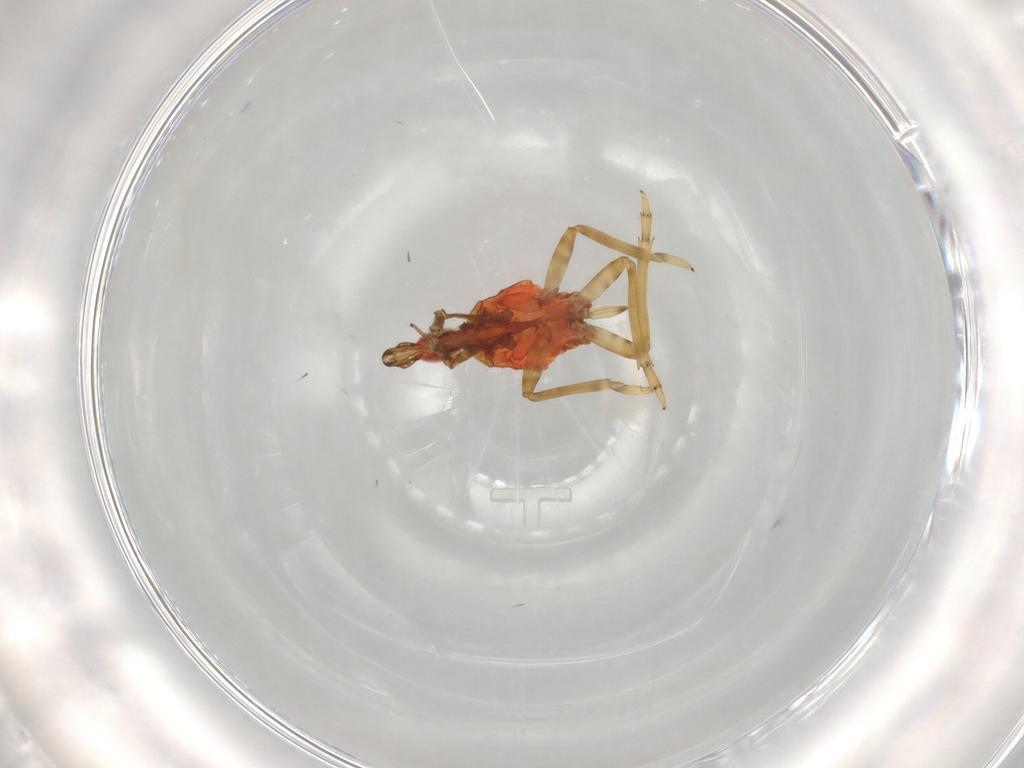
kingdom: Animalia
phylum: Arthropoda
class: Insecta
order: Hemiptera
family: Fulgoroidea_incertae_sedis
